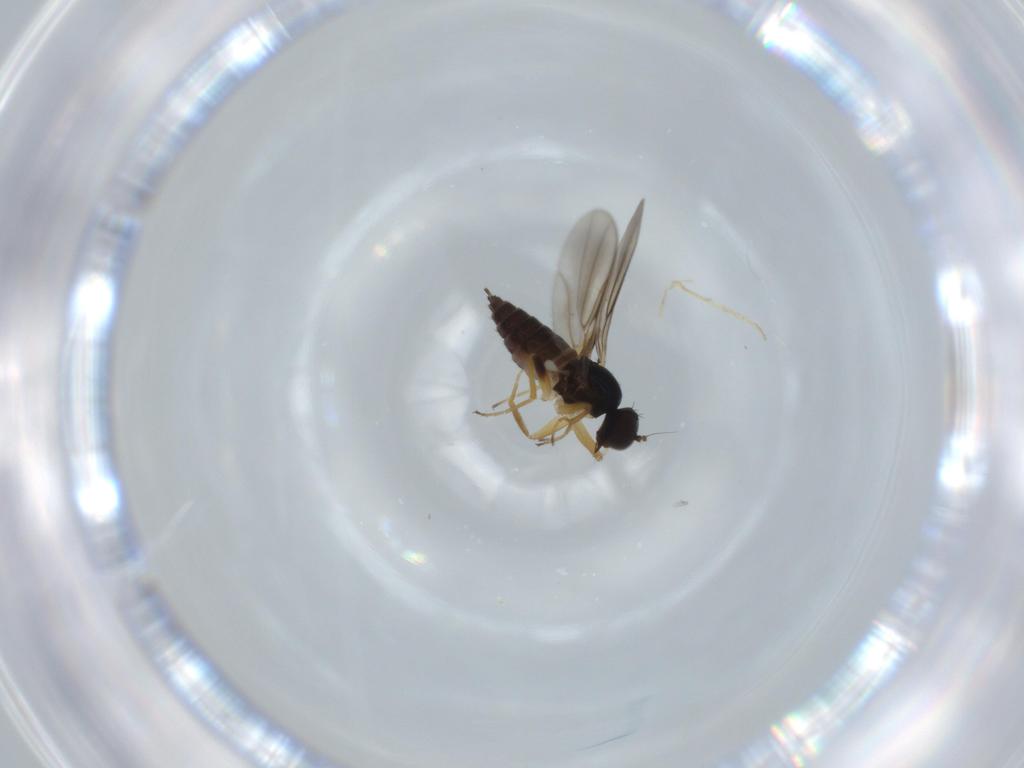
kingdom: Animalia
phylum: Arthropoda
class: Insecta
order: Diptera
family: Hybotidae
